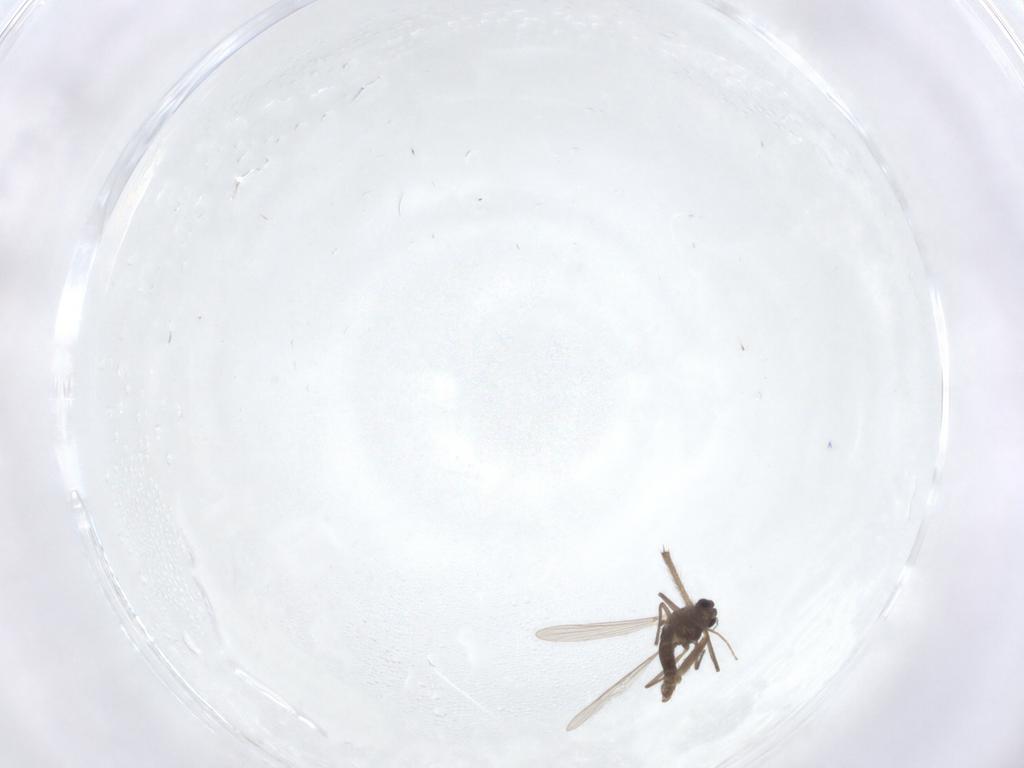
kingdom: Animalia
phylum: Arthropoda
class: Insecta
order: Diptera
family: Chironomidae
